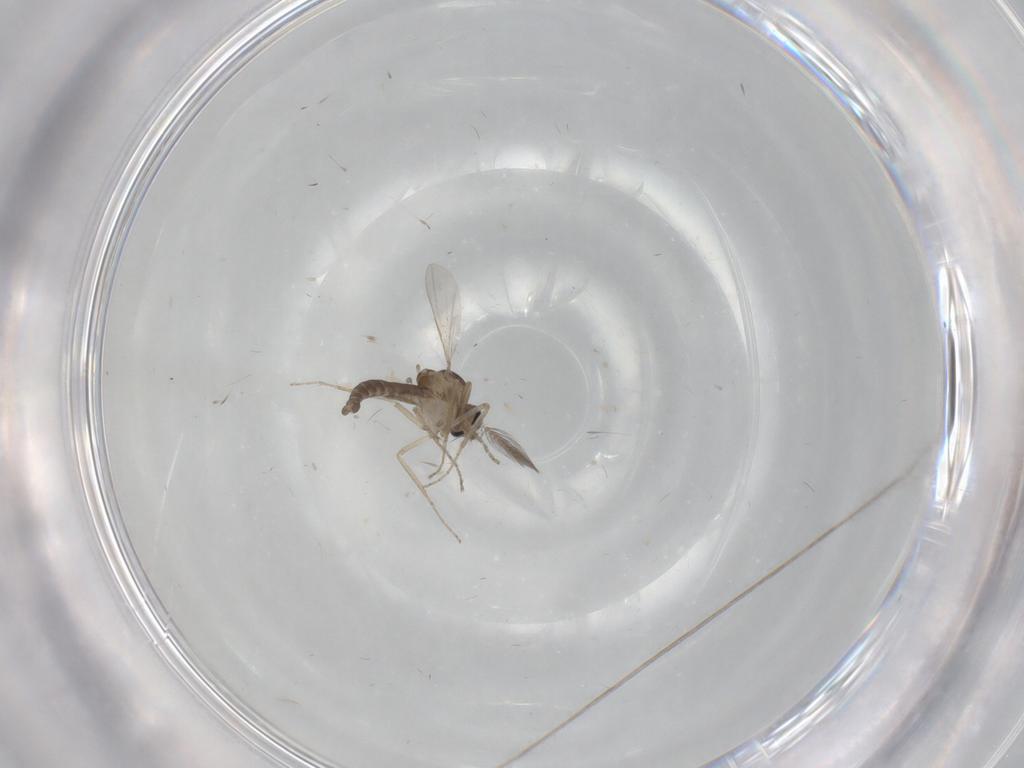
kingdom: Animalia
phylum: Arthropoda
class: Insecta
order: Diptera
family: Ceratopogonidae
